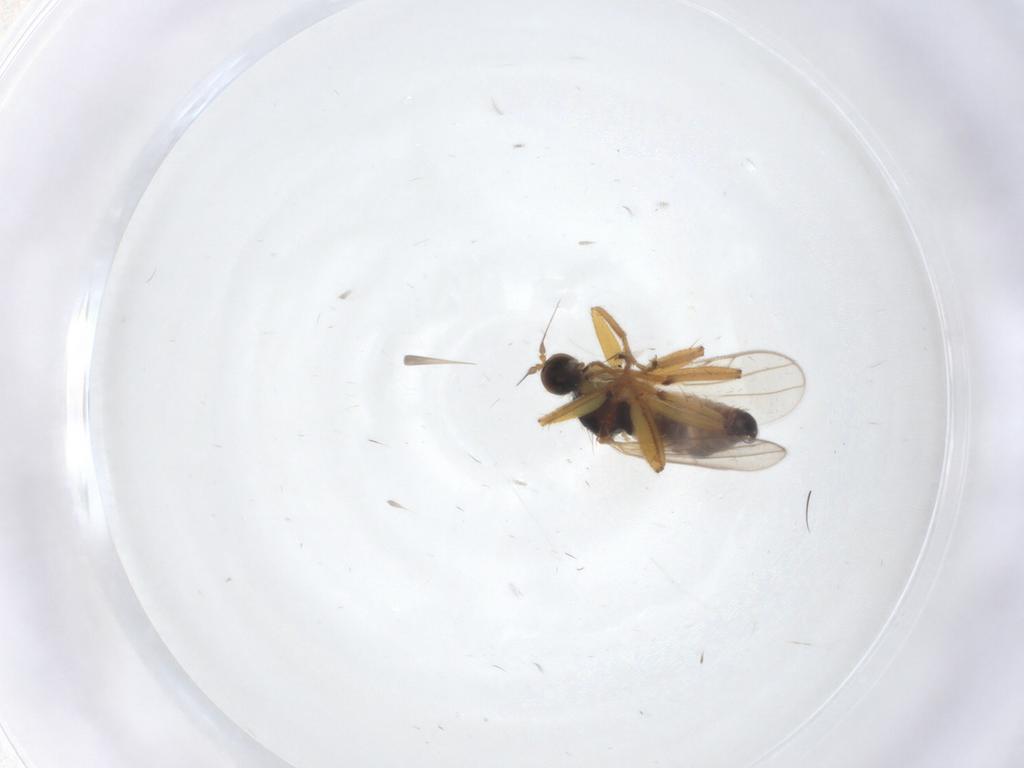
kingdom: Animalia
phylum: Arthropoda
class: Insecta
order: Diptera
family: Hybotidae
